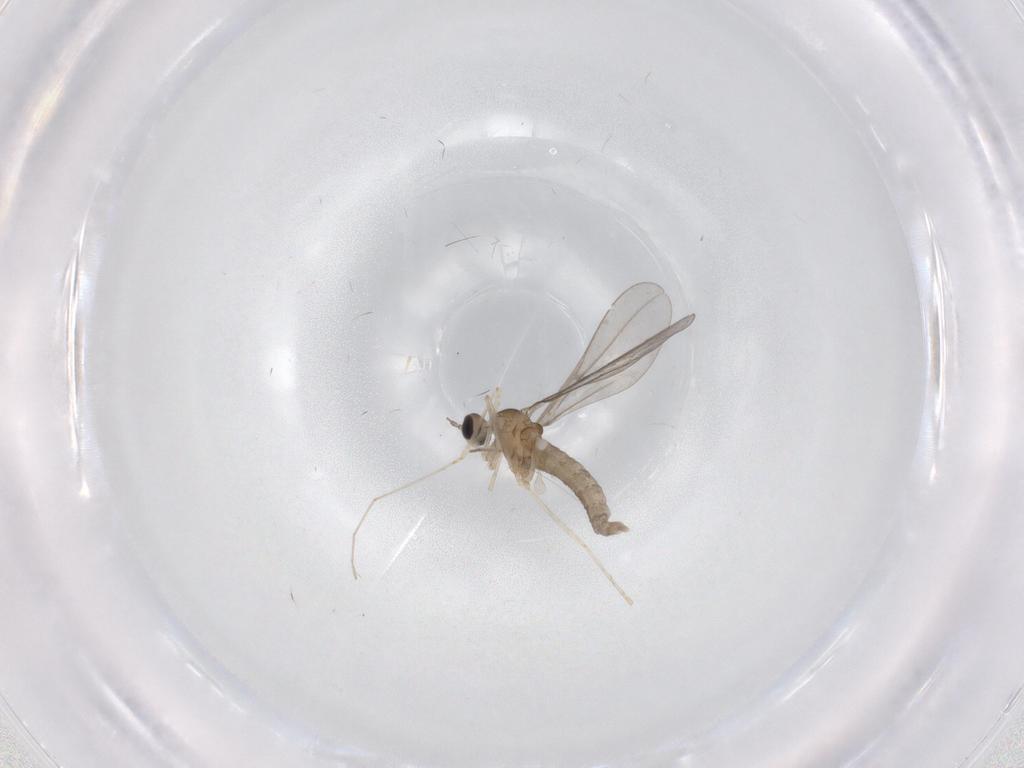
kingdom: Animalia
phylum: Arthropoda
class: Insecta
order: Diptera
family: Cecidomyiidae
